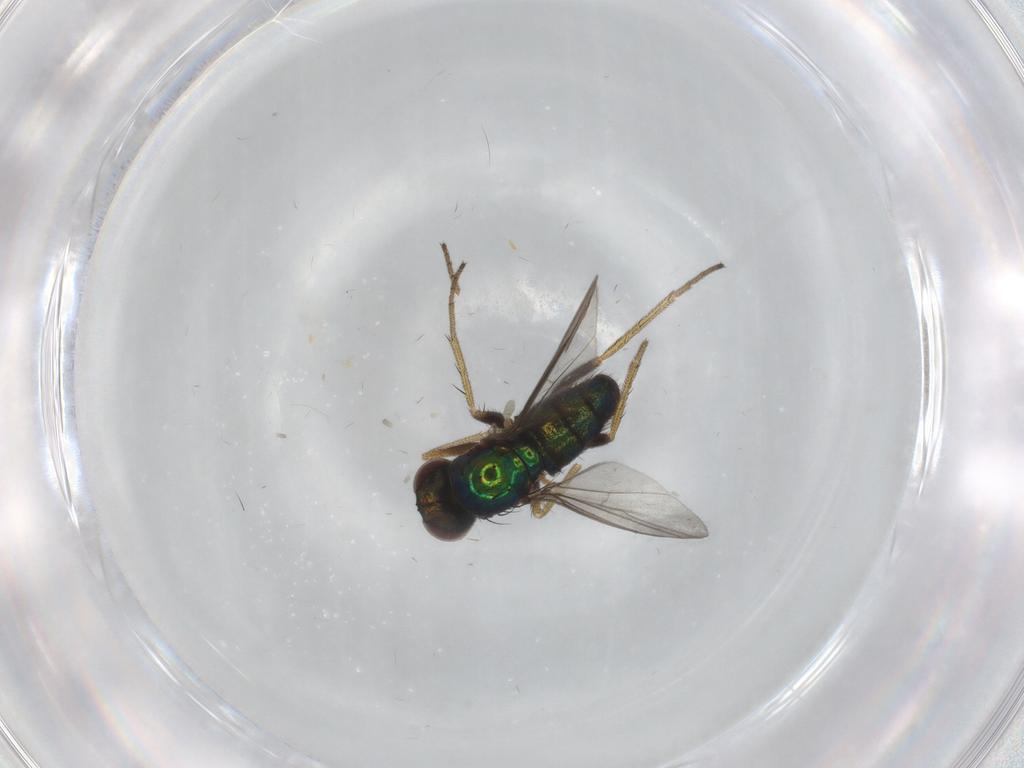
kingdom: Animalia
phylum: Arthropoda
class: Insecta
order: Diptera
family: Dolichopodidae
